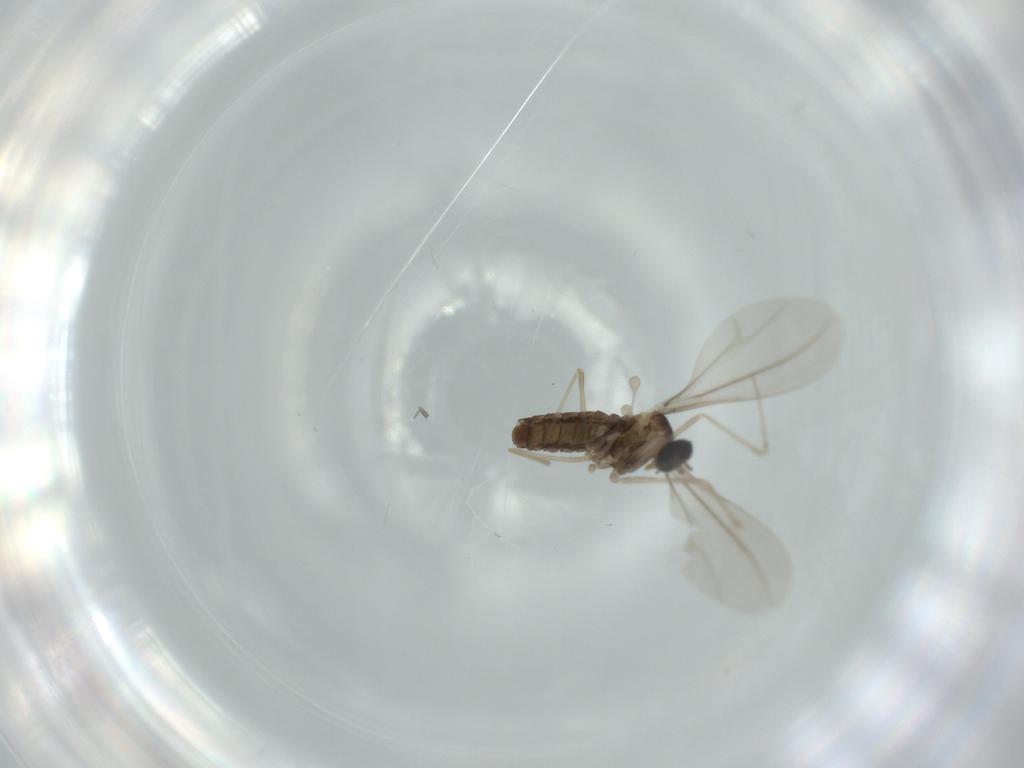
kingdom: Animalia
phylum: Arthropoda
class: Insecta
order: Diptera
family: Cecidomyiidae
